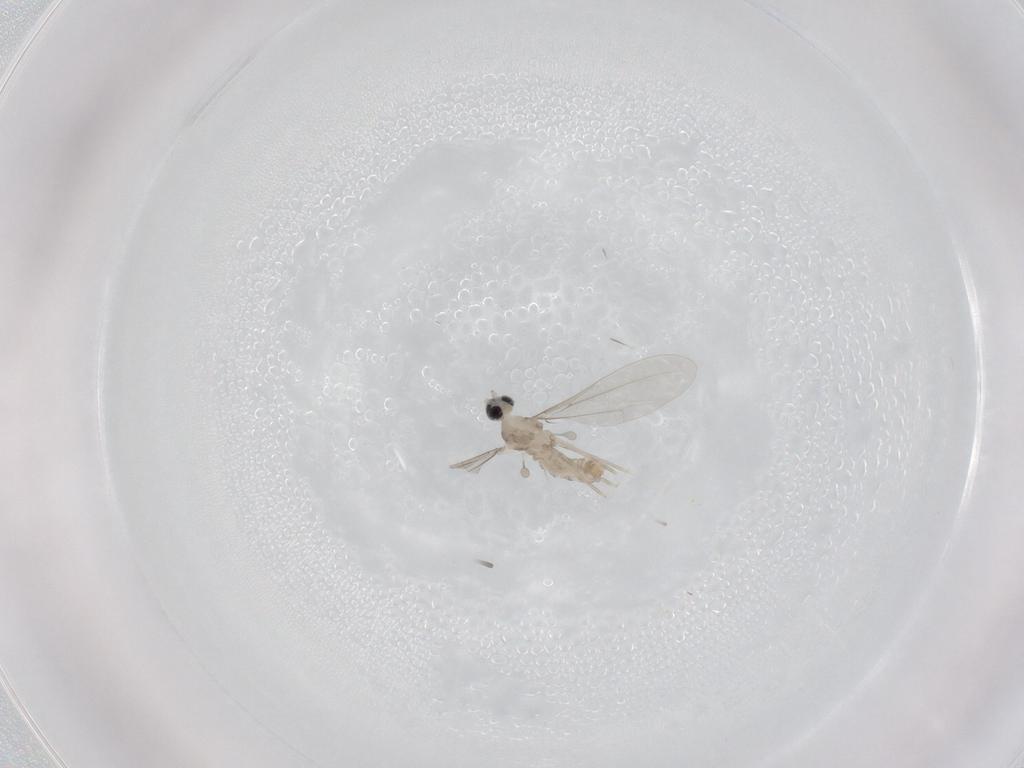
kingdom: Animalia
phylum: Arthropoda
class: Insecta
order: Diptera
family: Cecidomyiidae
